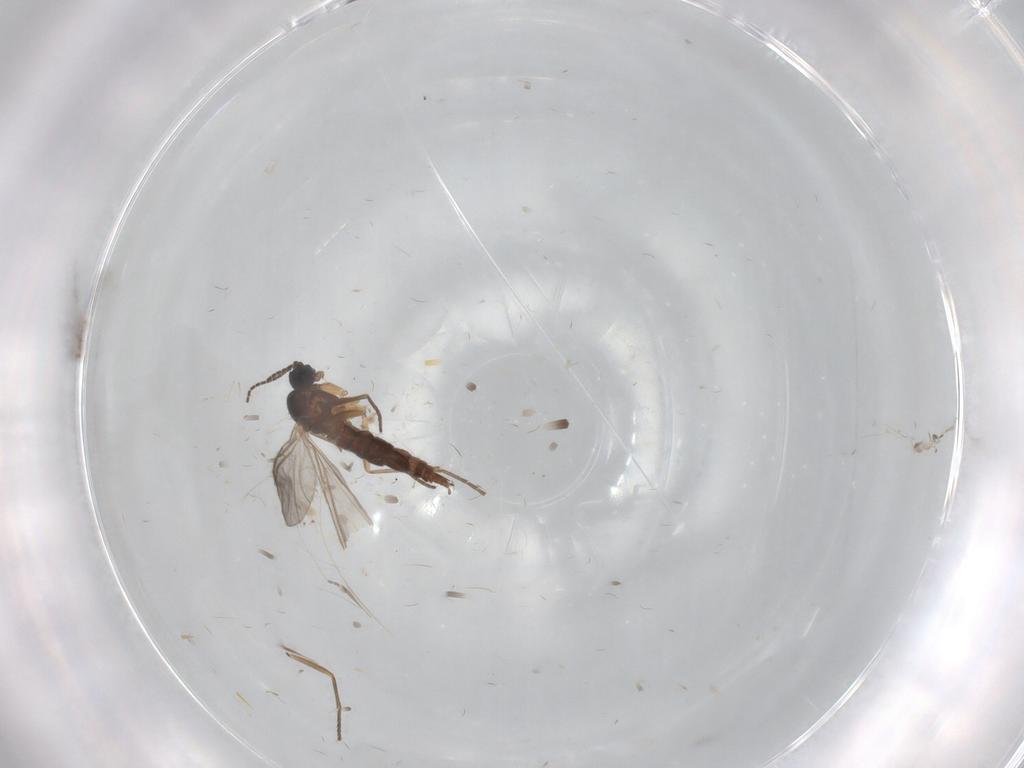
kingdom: Animalia
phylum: Arthropoda
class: Insecta
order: Diptera
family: Sciaridae
